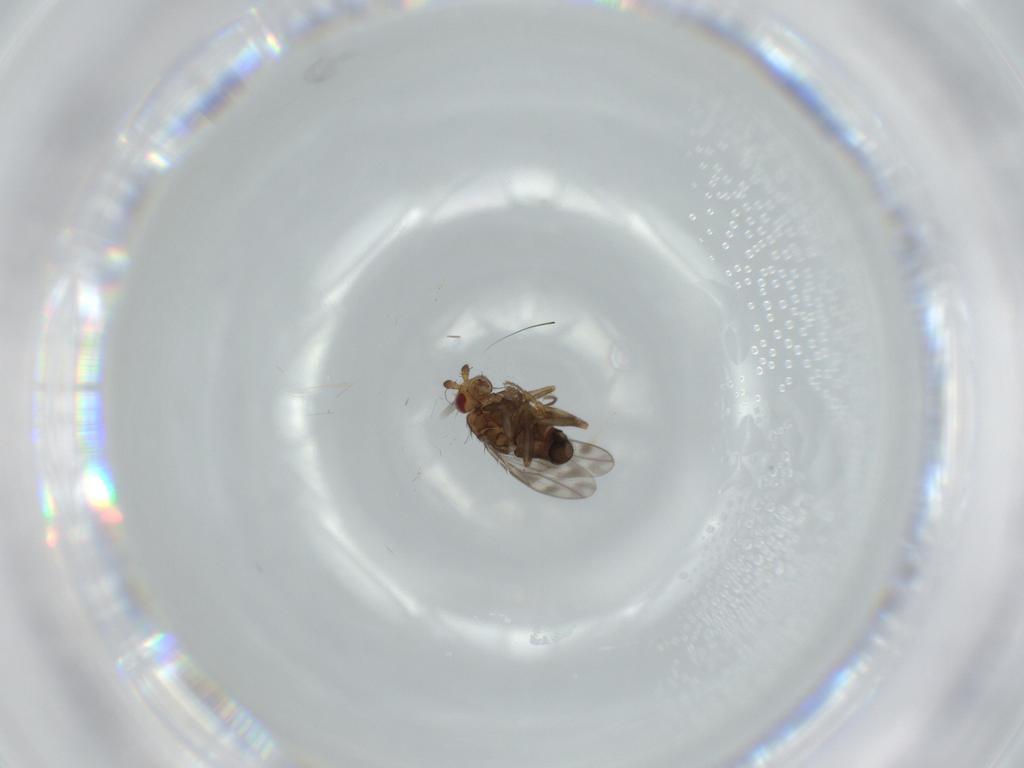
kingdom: Animalia
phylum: Arthropoda
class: Insecta
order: Diptera
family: Sphaeroceridae
